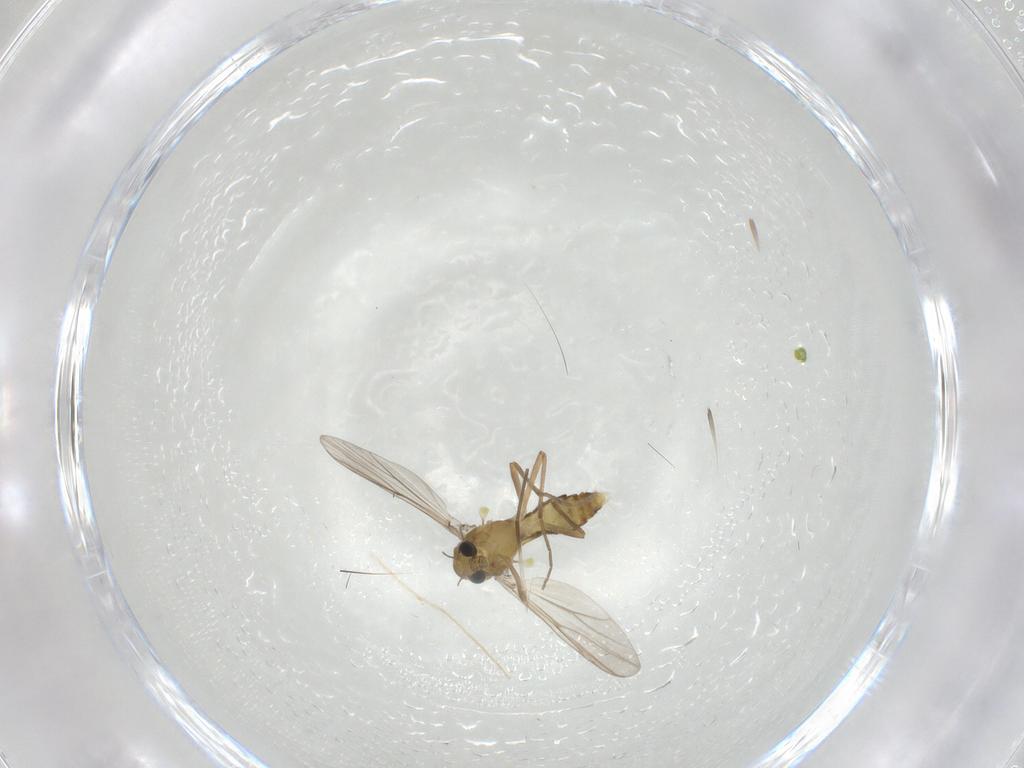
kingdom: Animalia
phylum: Arthropoda
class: Insecta
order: Diptera
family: Chironomidae
